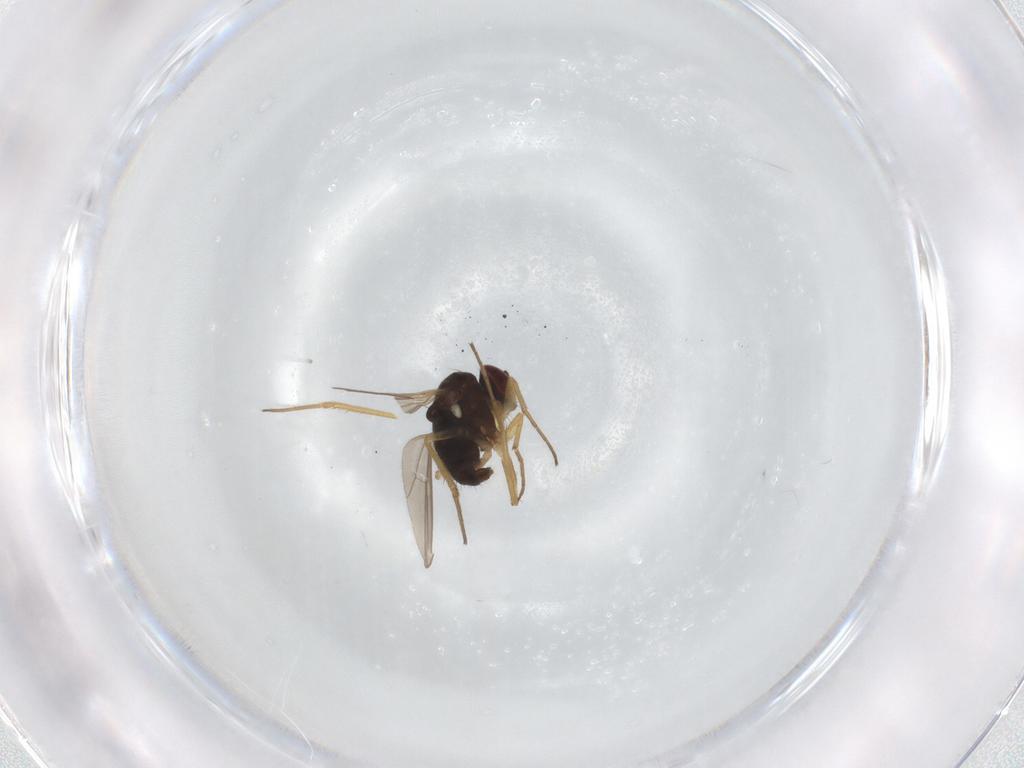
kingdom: Animalia
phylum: Arthropoda
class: Insecta
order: Diptera
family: Dolichopodidae
